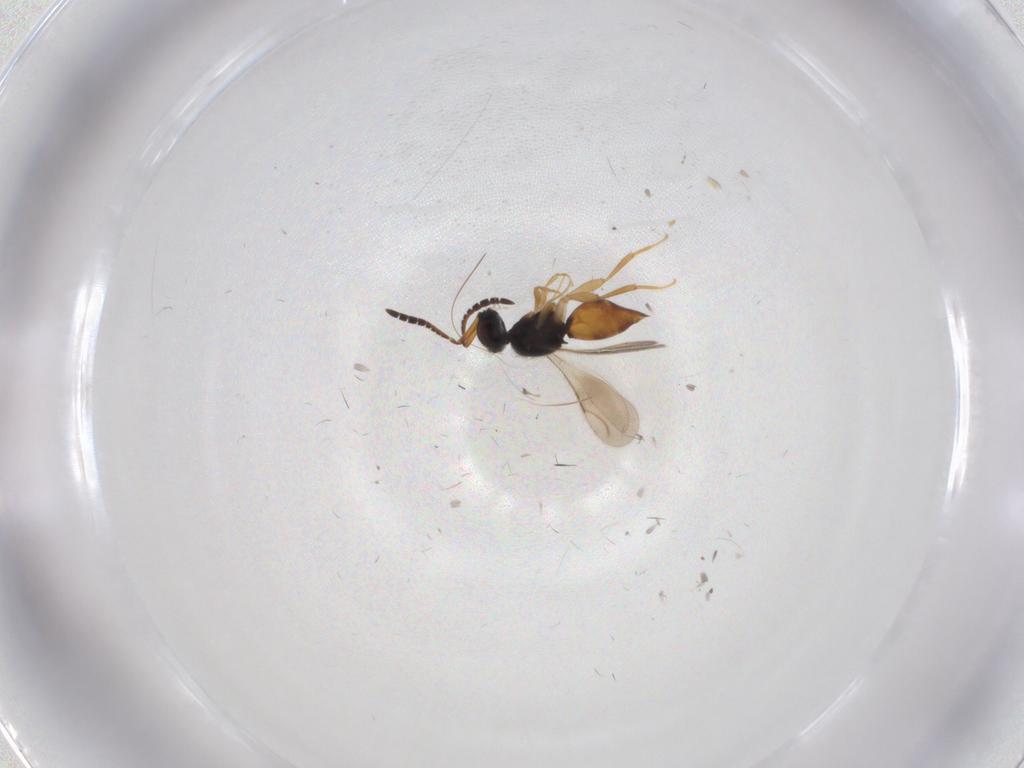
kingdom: Animalia
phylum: Arthropoda
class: Insecta
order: Hymenoptera
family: Ceraphronidae
